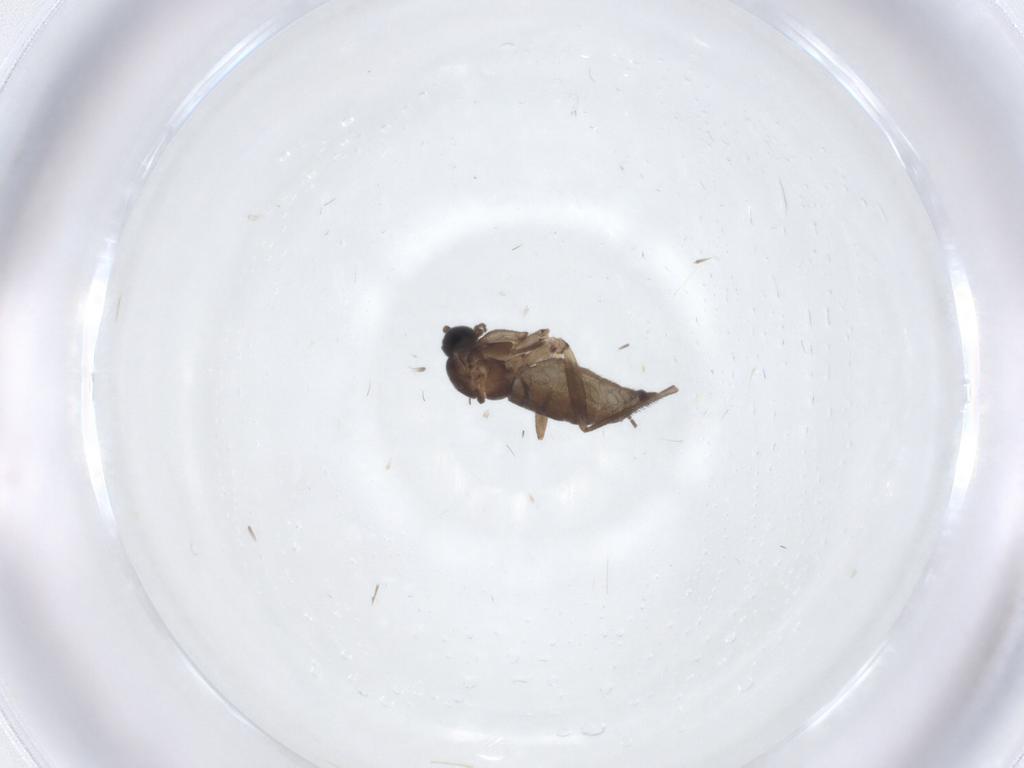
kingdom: Animalia
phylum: Arthropoda
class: Insecta
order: Diptera
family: Sciaridae
